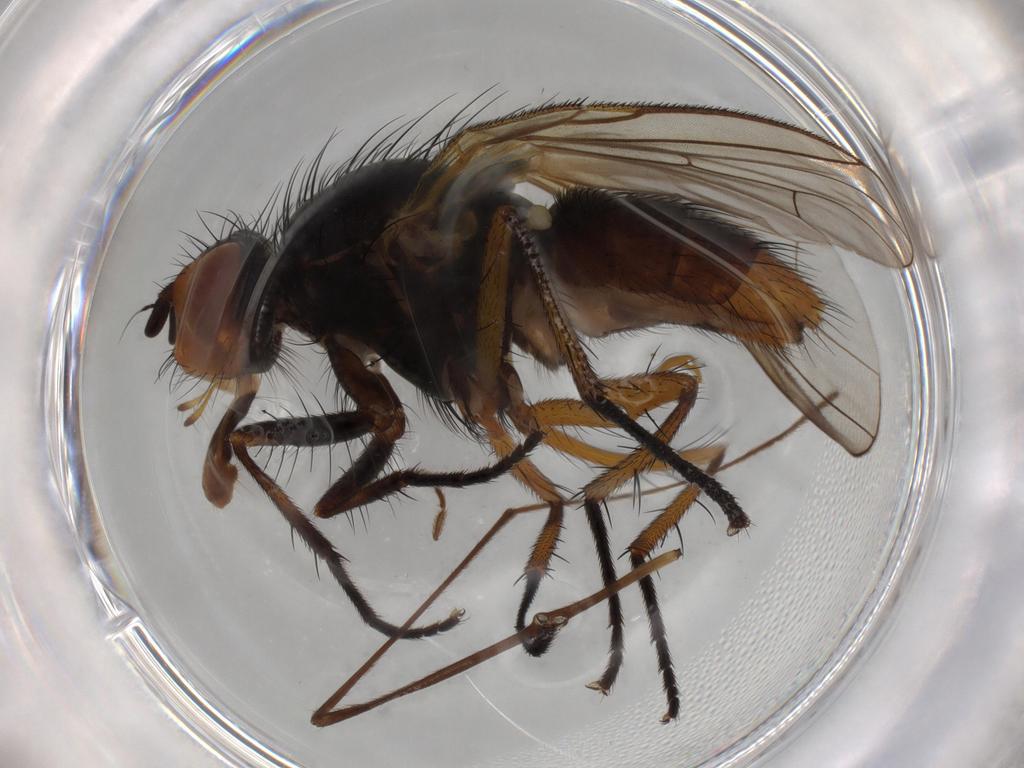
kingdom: Animalia
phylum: Arthropoda
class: Insecta
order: Diptera
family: Anthomyiidae
